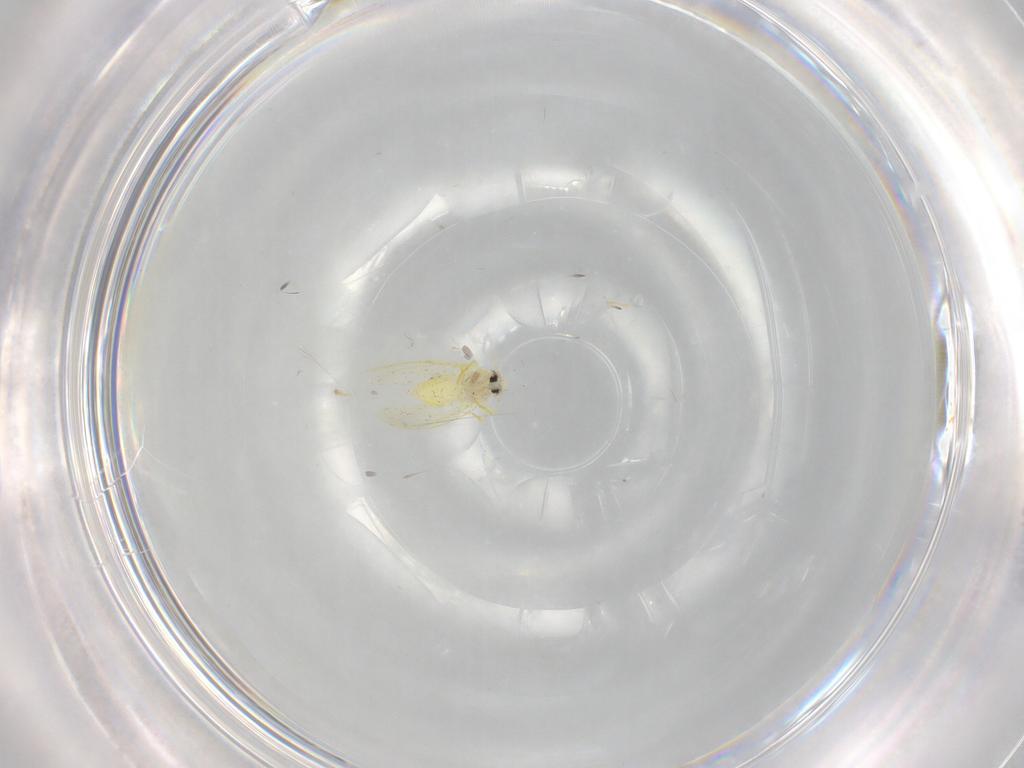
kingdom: Animalia
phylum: Arthropoda
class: Insecta
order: Hemiptera
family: Aleyrodidae
